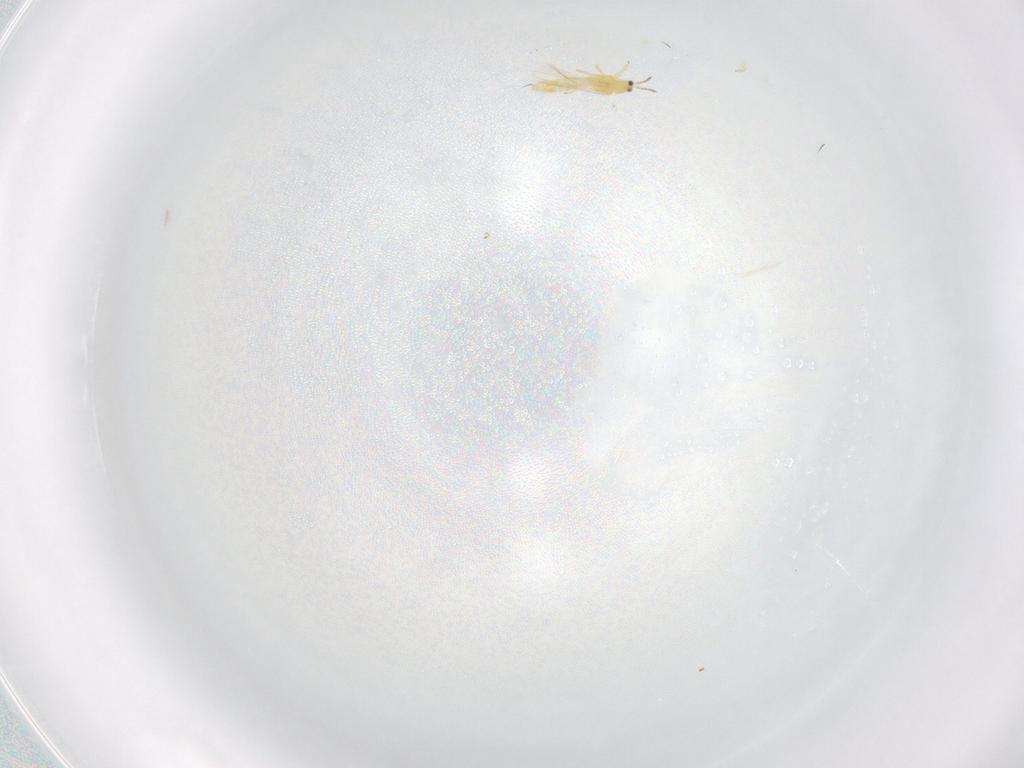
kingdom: Animalia
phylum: Arthropoda
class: Insecta
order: Thysanoptera
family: Thripidae
